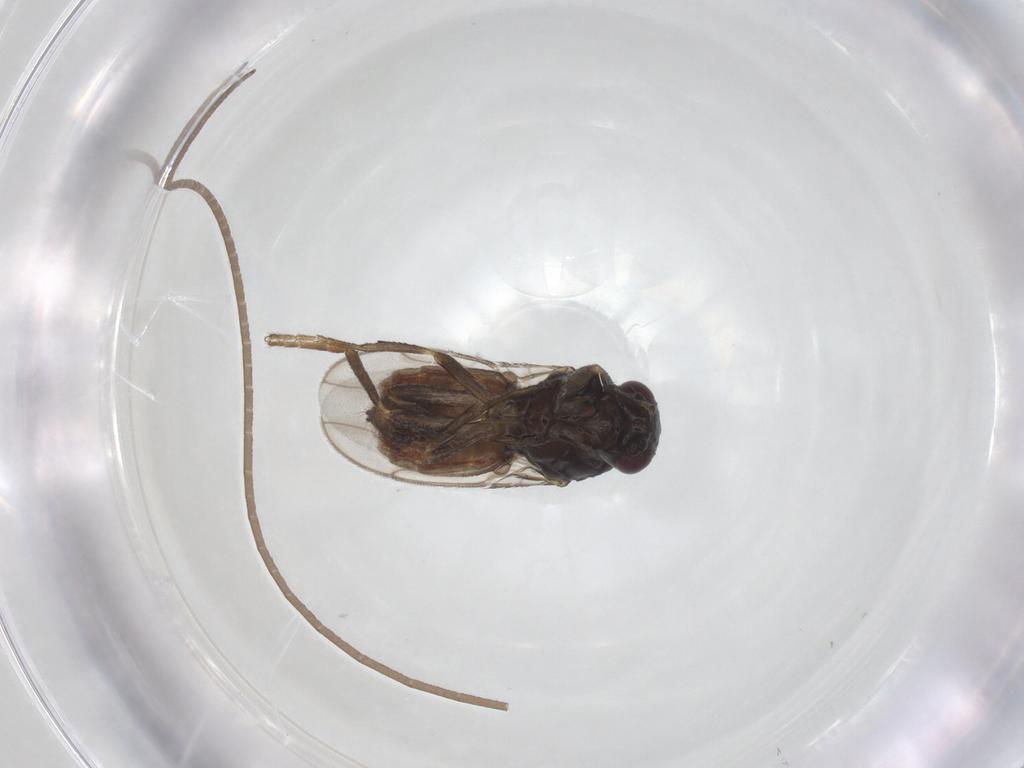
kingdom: Animalia
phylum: Arthropoda
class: Insecta
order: Diptera
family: Sphaeroceridae
